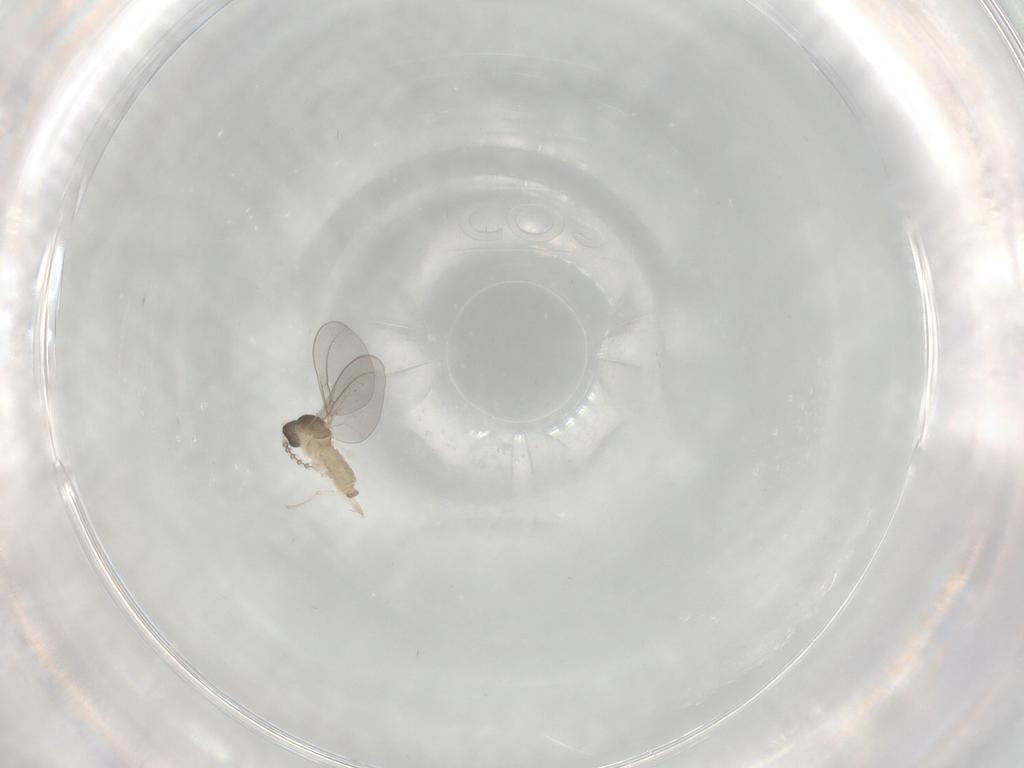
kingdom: Animalia
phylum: Arthropoda
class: Insecta
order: Diptera
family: Cecidomyiidae
